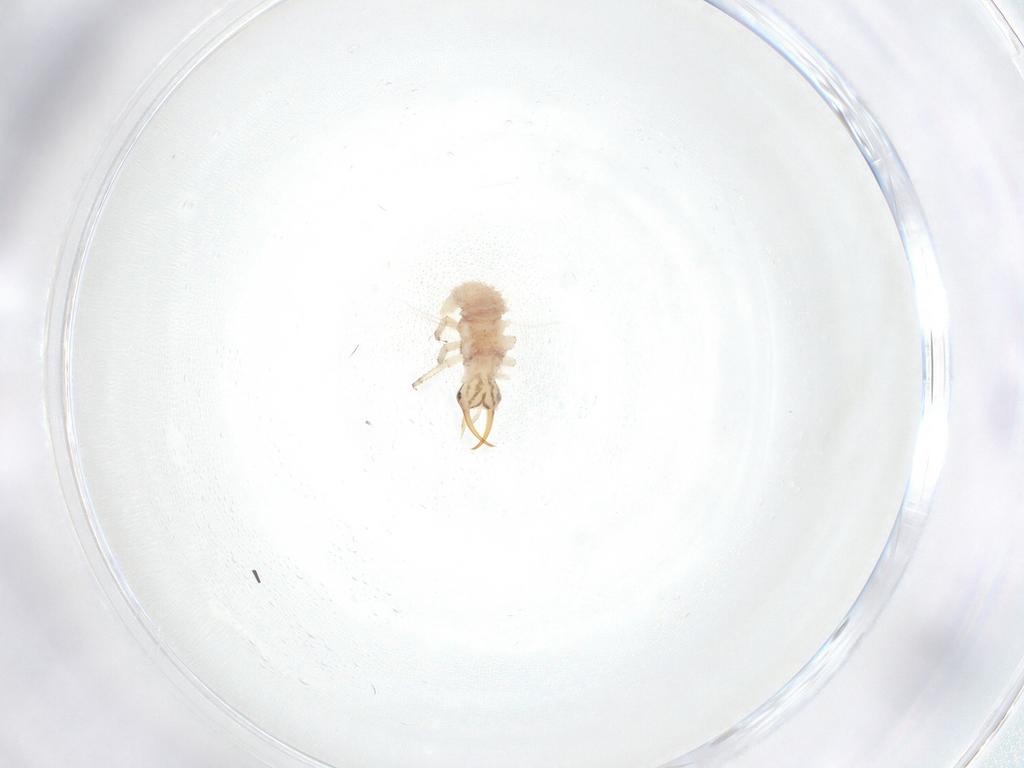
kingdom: Animalia
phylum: Arthropoda
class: Insecta
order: Neuroptera
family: Chrysopidae
